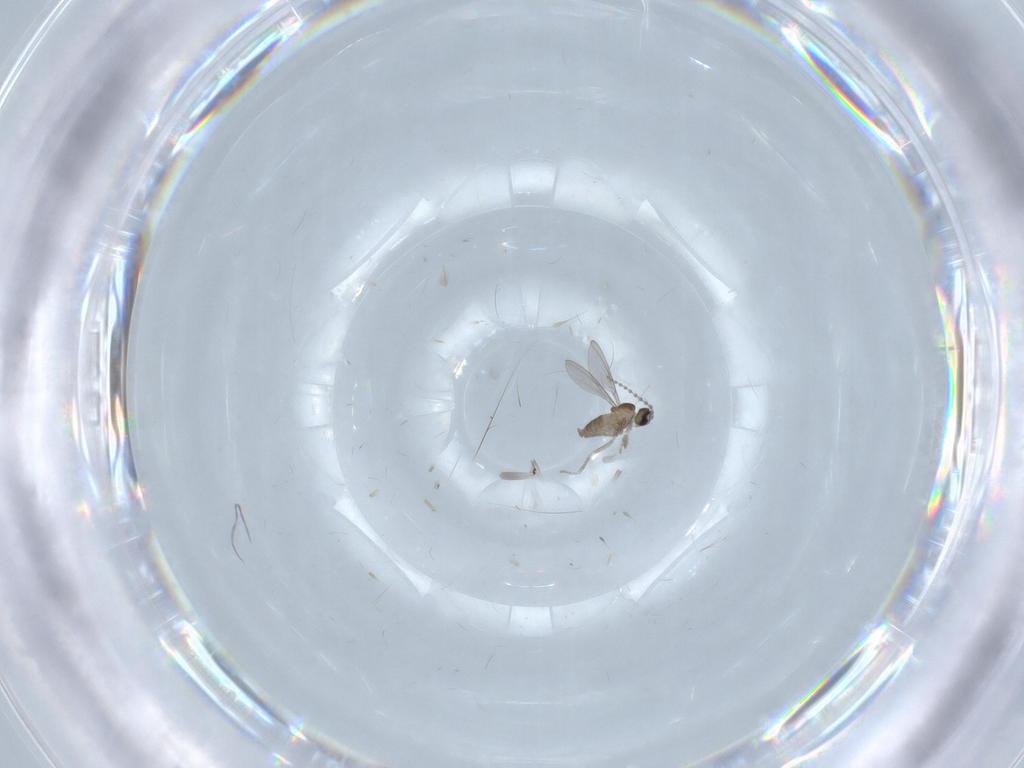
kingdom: Animalia
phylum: Arthropoda
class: Insecta
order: Diptera
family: Cecidomyiidae
